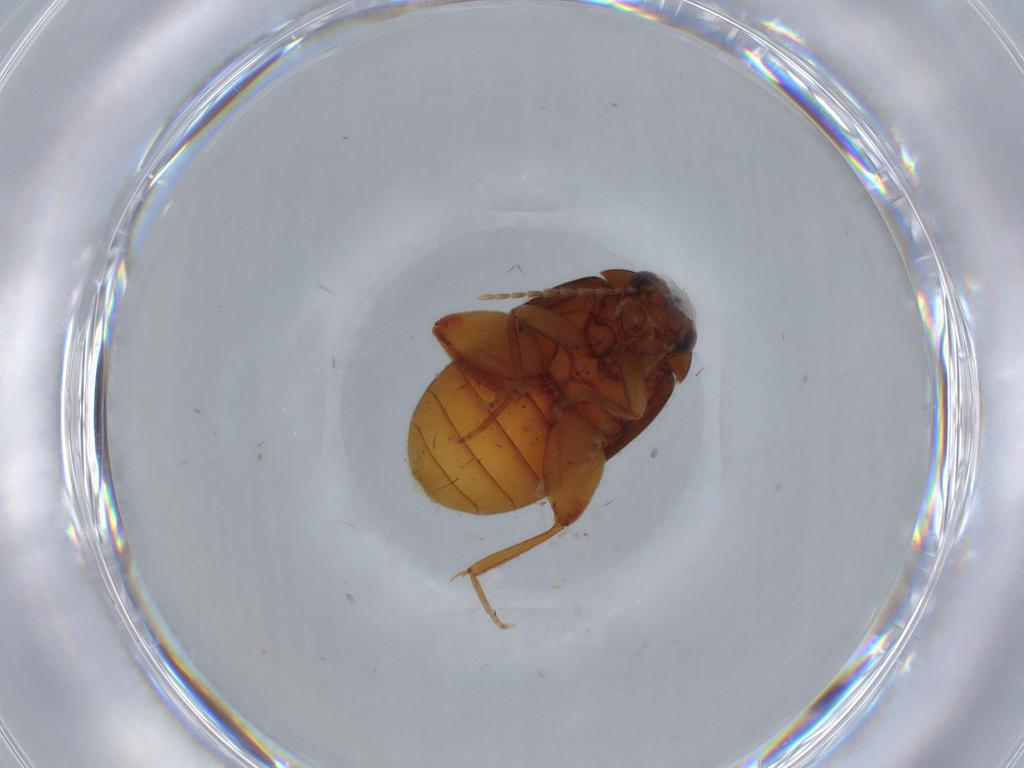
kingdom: Animalia
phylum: Arthropoda
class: Insecta
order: Coleoptera
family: Scirtidae
